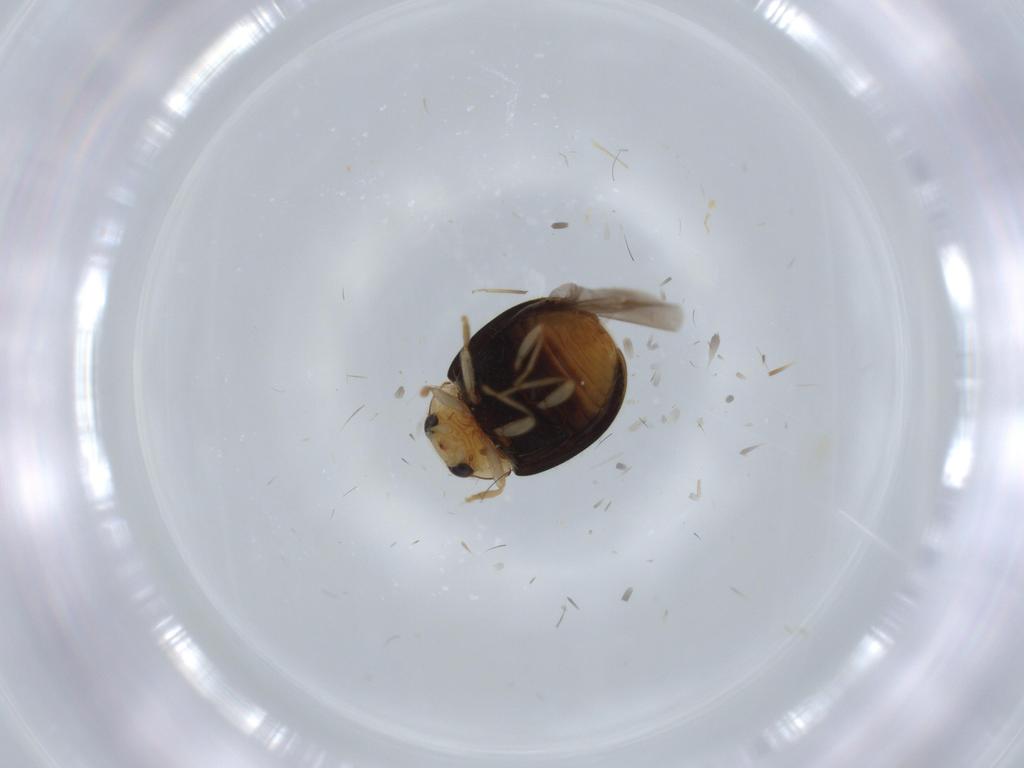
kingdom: Animalia
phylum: Arthropoda
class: Insecta
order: Coleoptera
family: Chrysomelidae
